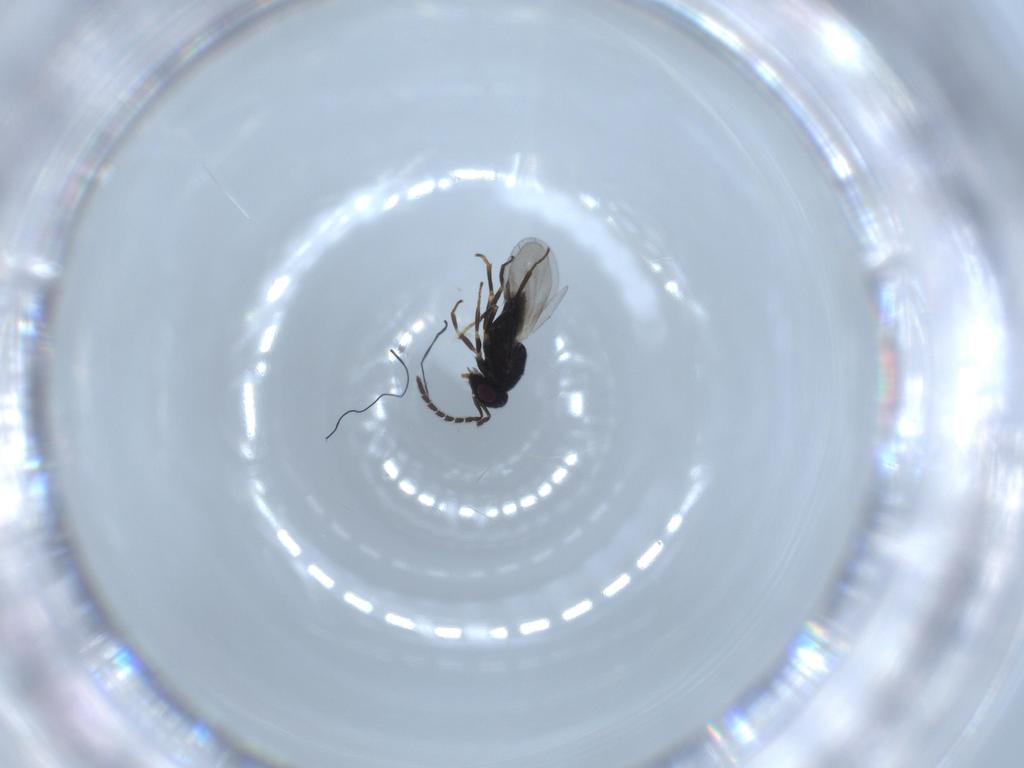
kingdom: Animalia
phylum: Arthropoda
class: Insecta
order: Hymenoptera
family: Encyrtidae
